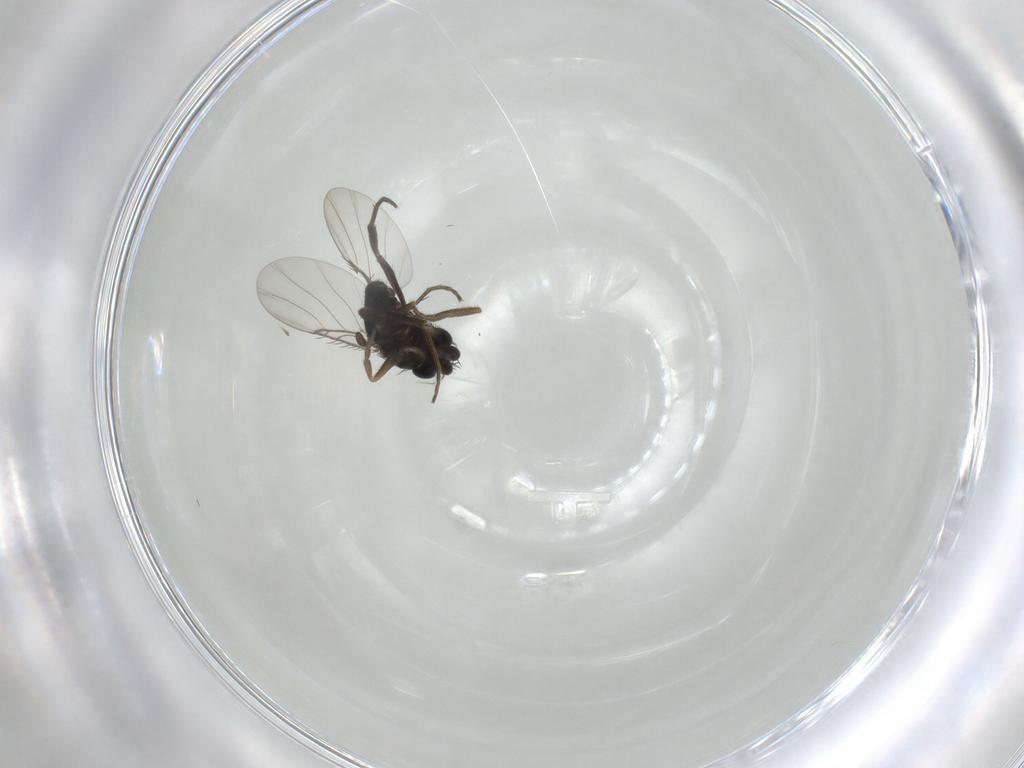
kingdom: Animalia
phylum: Arthropoda
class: Insecta
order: Diptera
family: Phoridae
